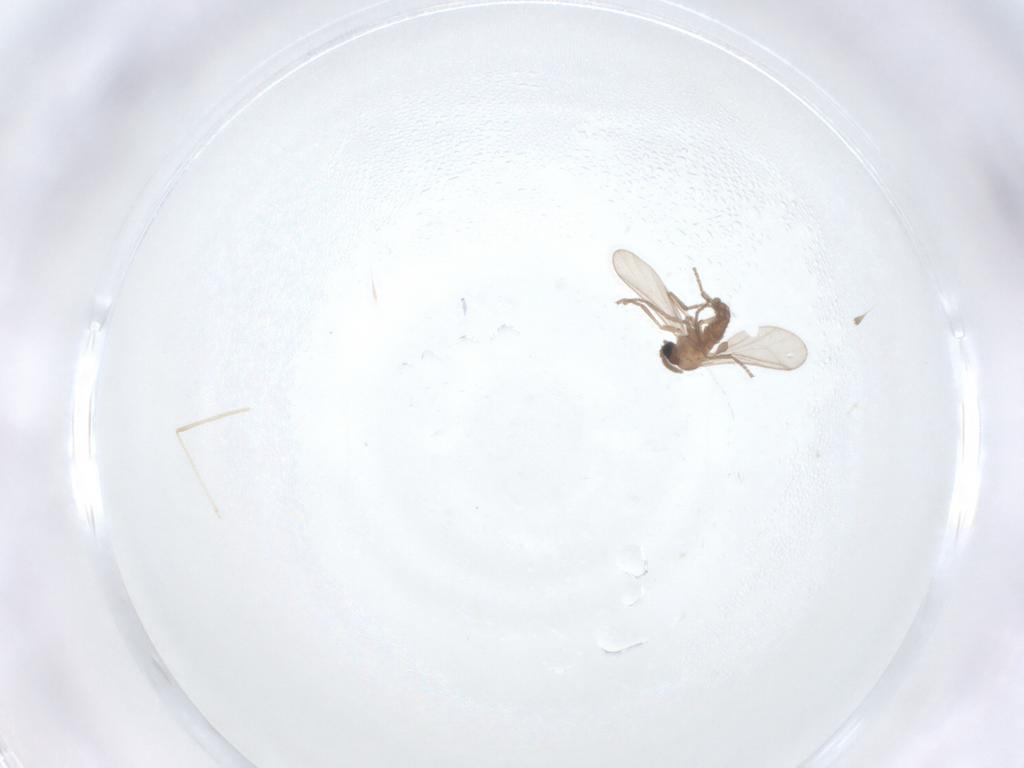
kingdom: Animalia
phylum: Arthropoda
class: Insecta
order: Diptera
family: Sciaridae
